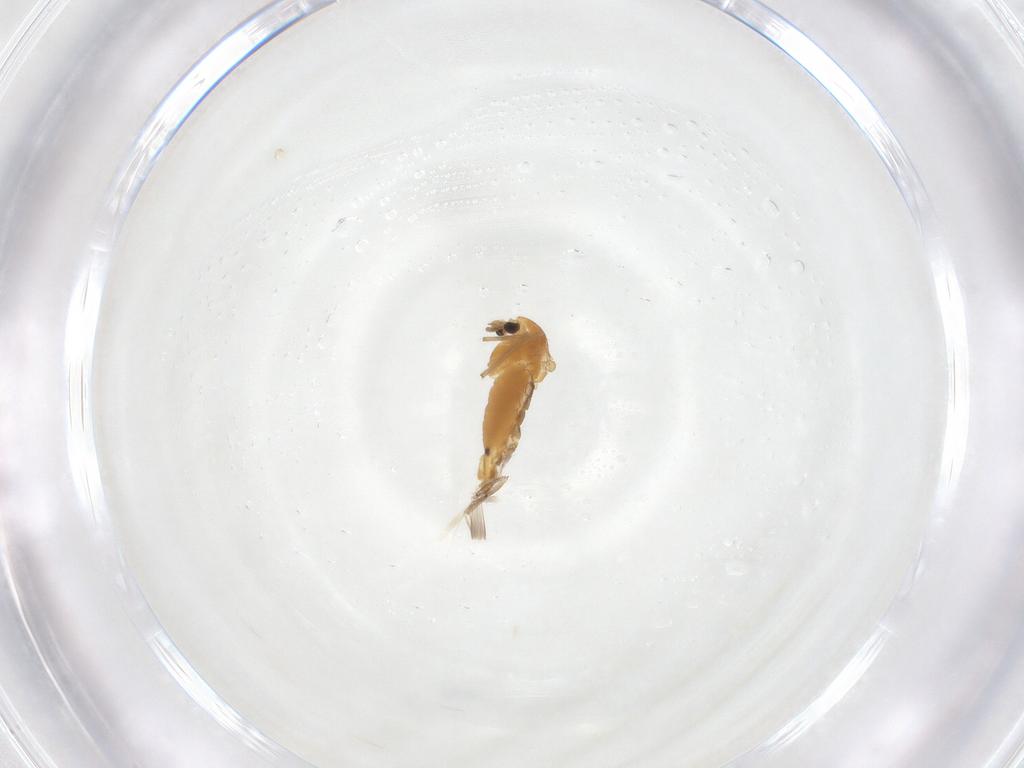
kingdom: Animalia
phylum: Arthropoda
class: Insecta
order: Diptera
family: Chironomidae
